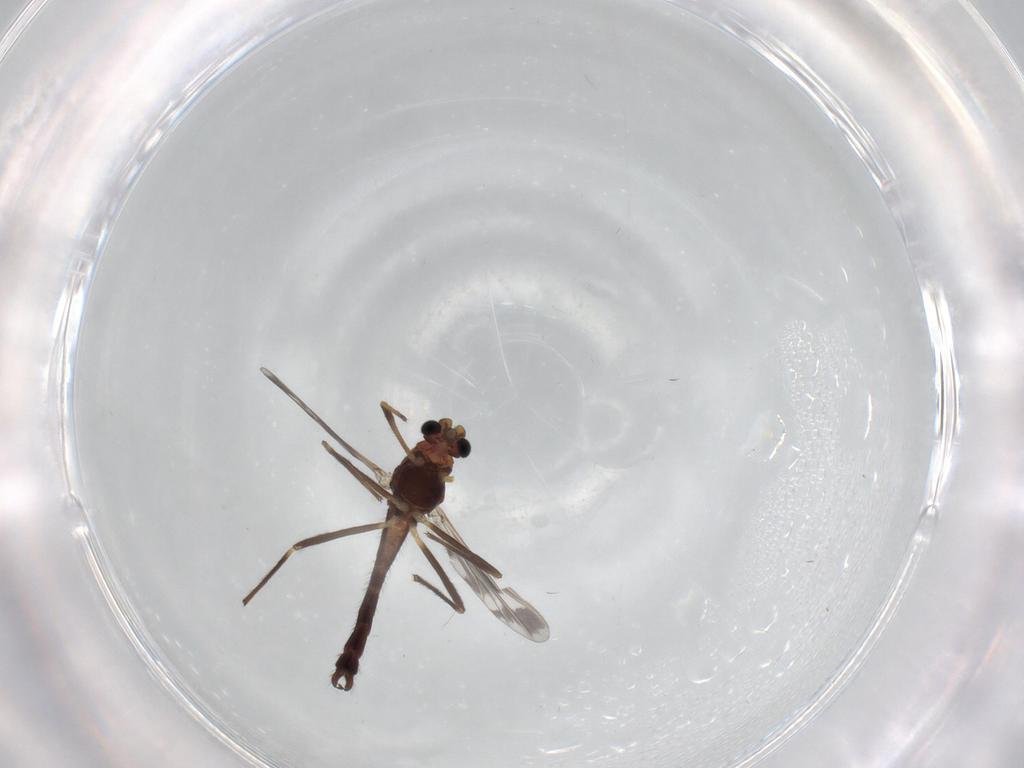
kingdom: Animalia
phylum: Arthropoda
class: Insecta
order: Diptera
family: Chironomidae
